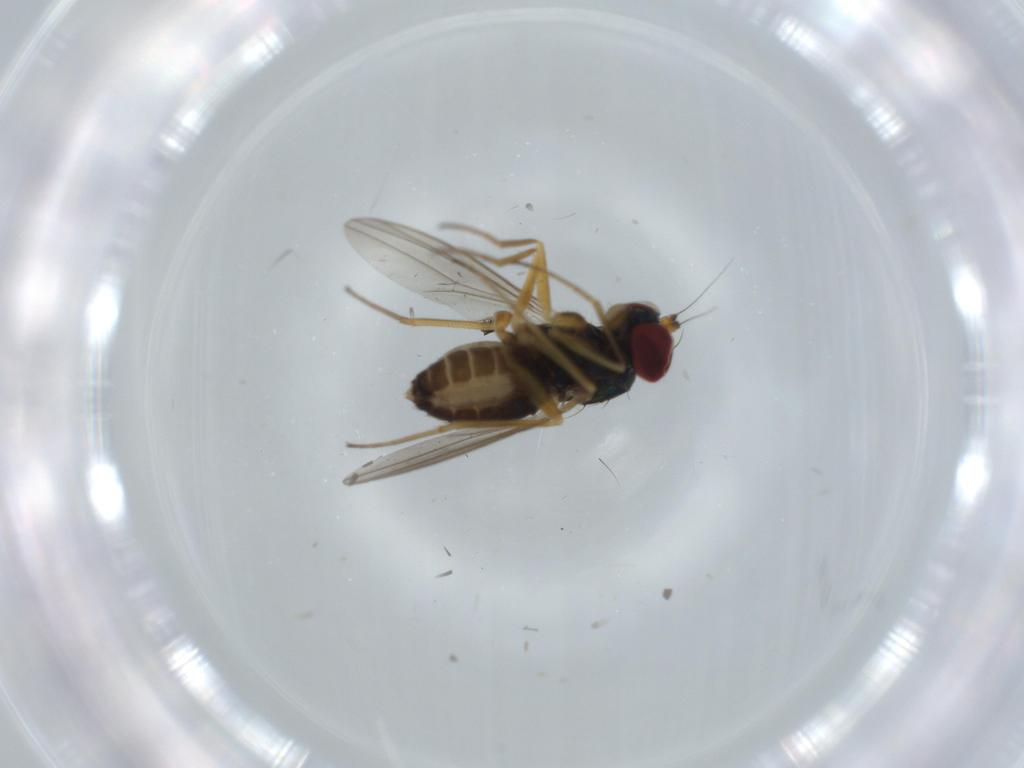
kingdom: Animalia
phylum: Arthropoda
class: Insecta
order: Diptera
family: Dolichopodidae
